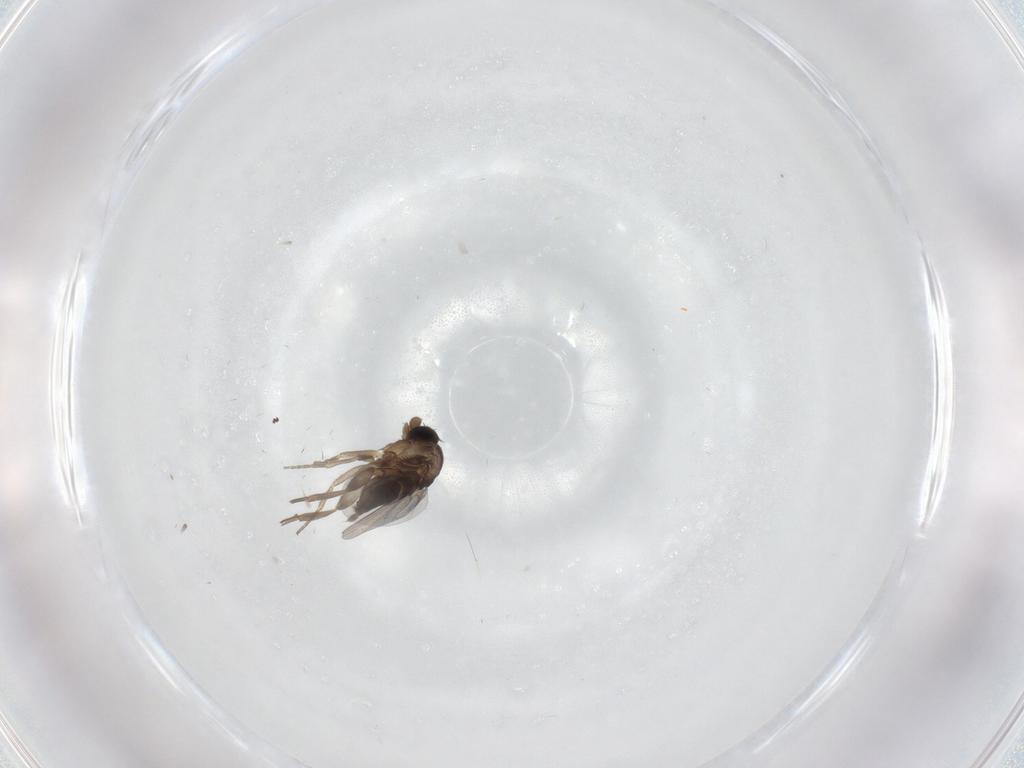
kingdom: Animalia
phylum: Arthropoda
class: Insecta
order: Diptera
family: Phoridae
